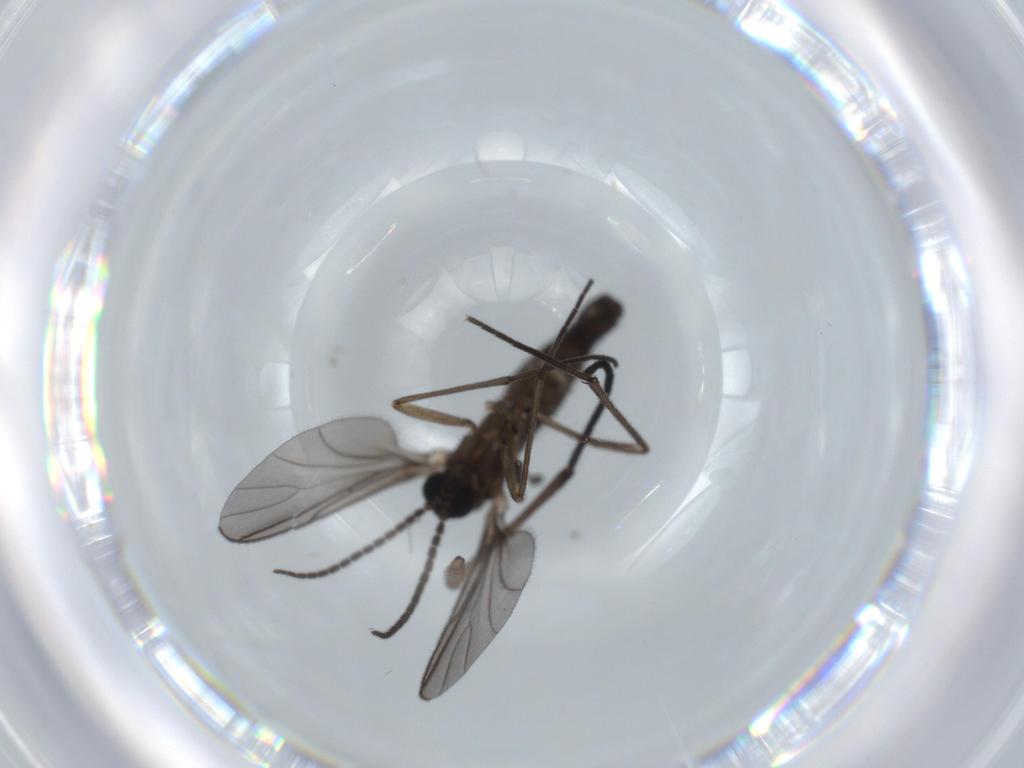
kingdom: Animalia
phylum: Arthropoda
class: Insecta
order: Diptera
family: Sciaridae
